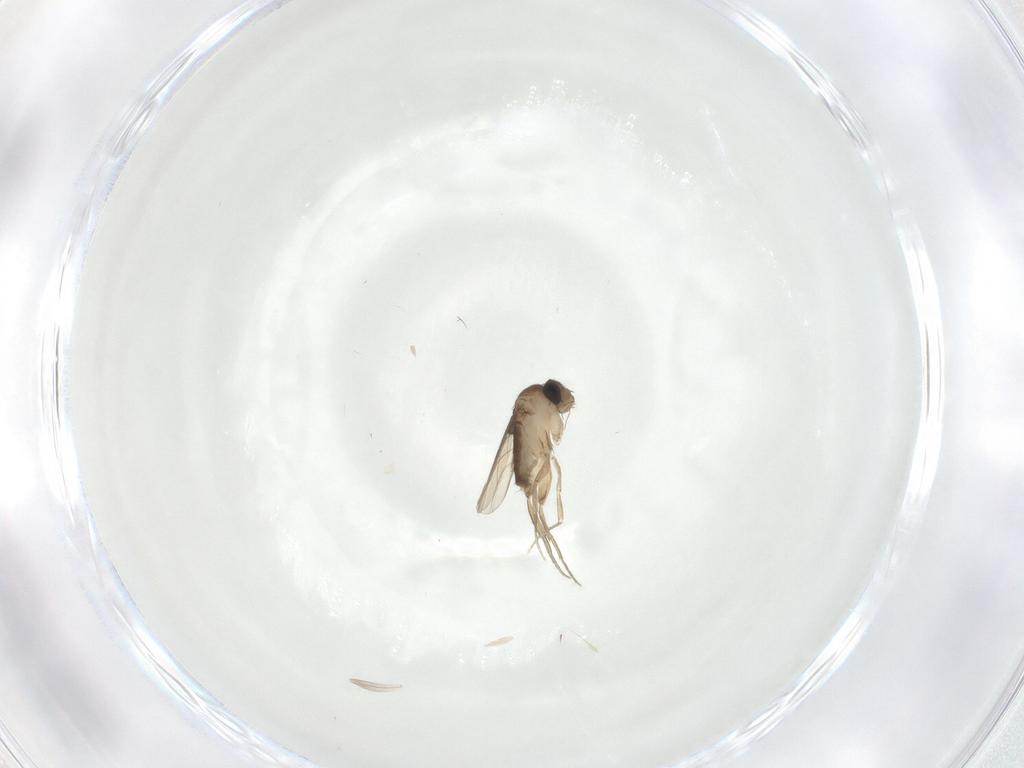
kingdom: Animalia
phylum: Arthropoda
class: Insecta
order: Diptera
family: Phoridae
